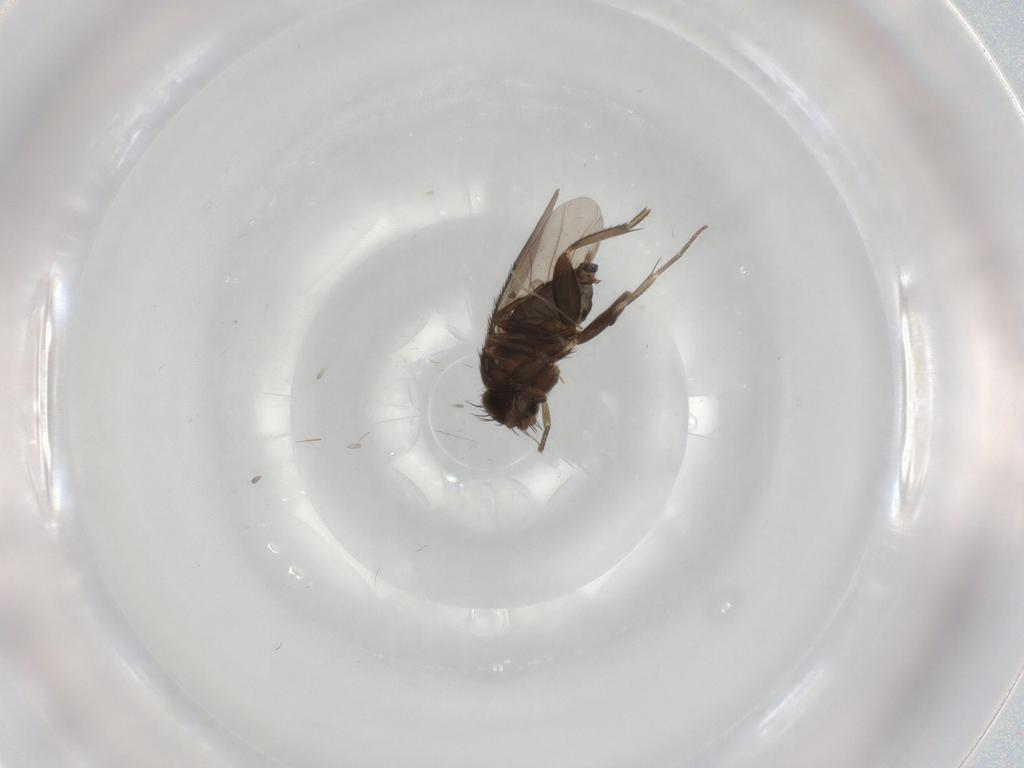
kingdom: Animalia
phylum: Arthropoda
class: Insecta
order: Diptera
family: Phoridae
